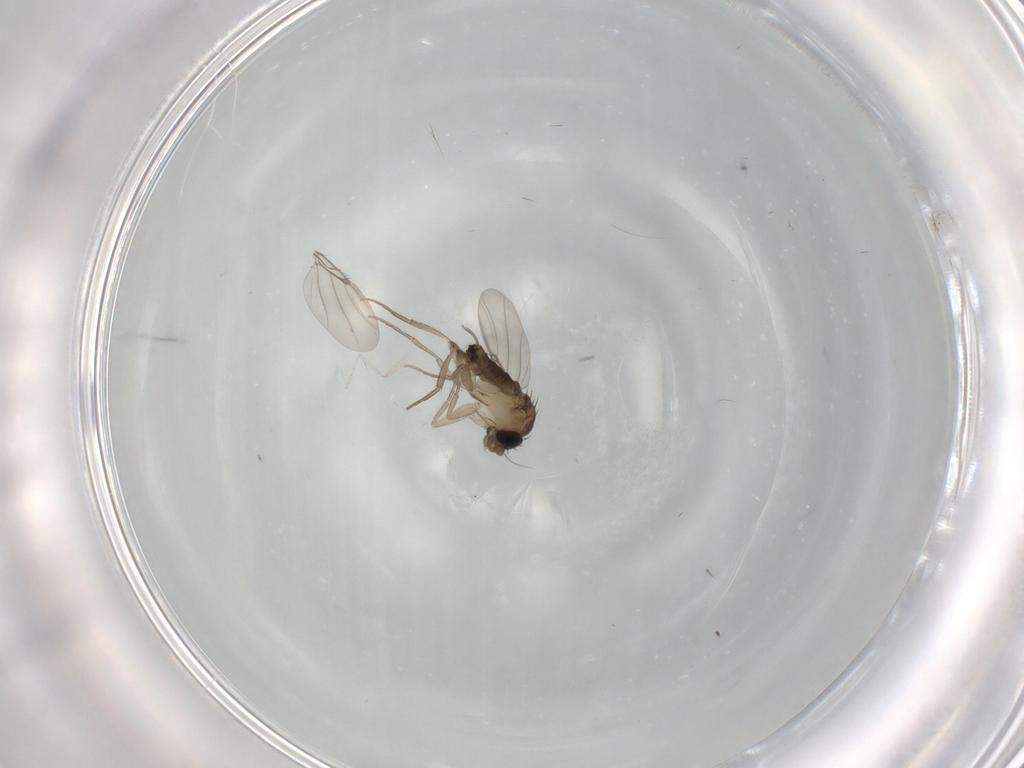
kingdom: Animalia
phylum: Arthropoda
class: Insecta
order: Diptera
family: Phoridae
